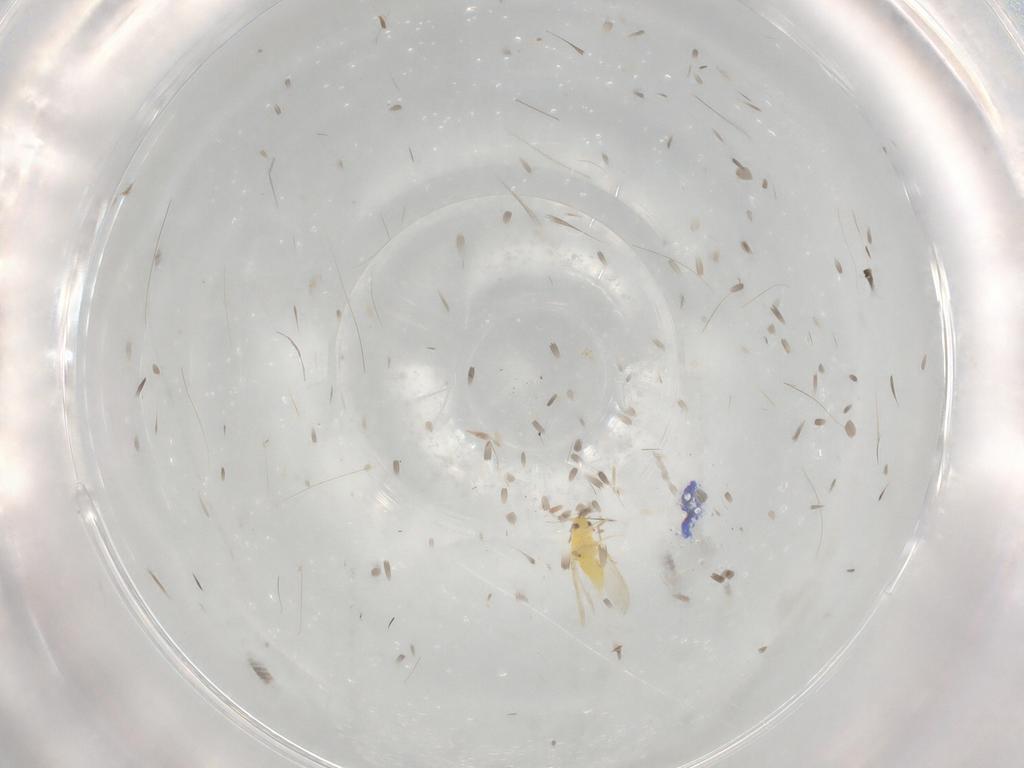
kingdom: Animalia
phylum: Arthropoda
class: Insecta
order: Hemiptera
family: Aleyrodidae
